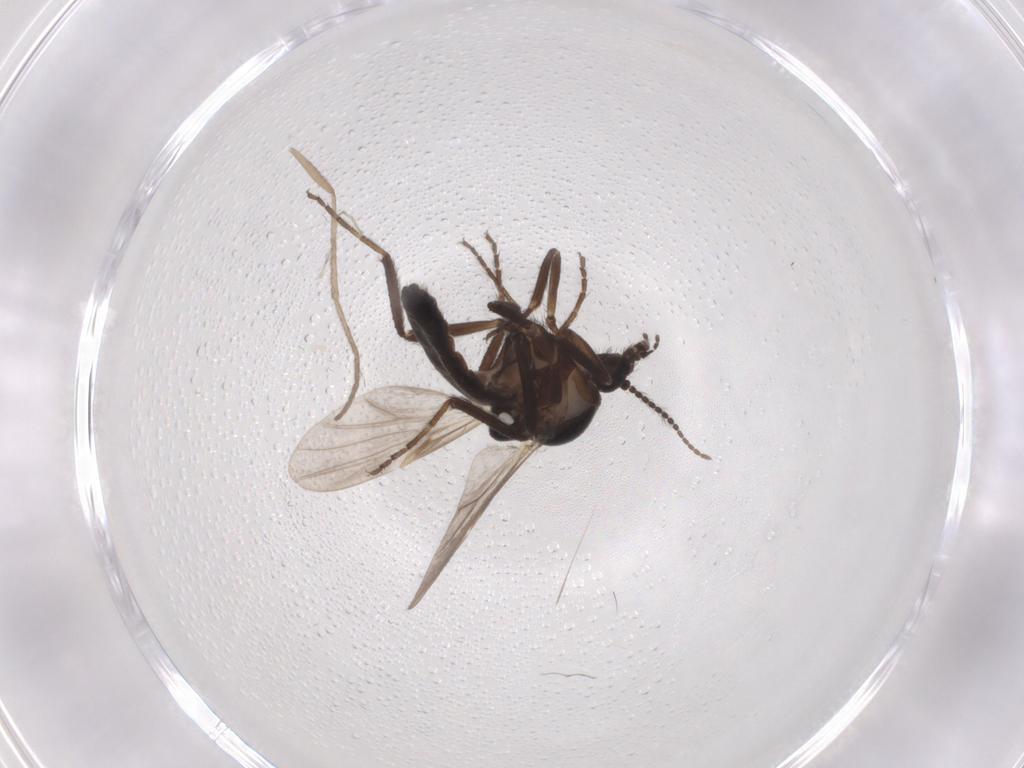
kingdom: Animalia
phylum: Arthropoda
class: Insecta
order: Diptera
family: Ceratopogonidae
